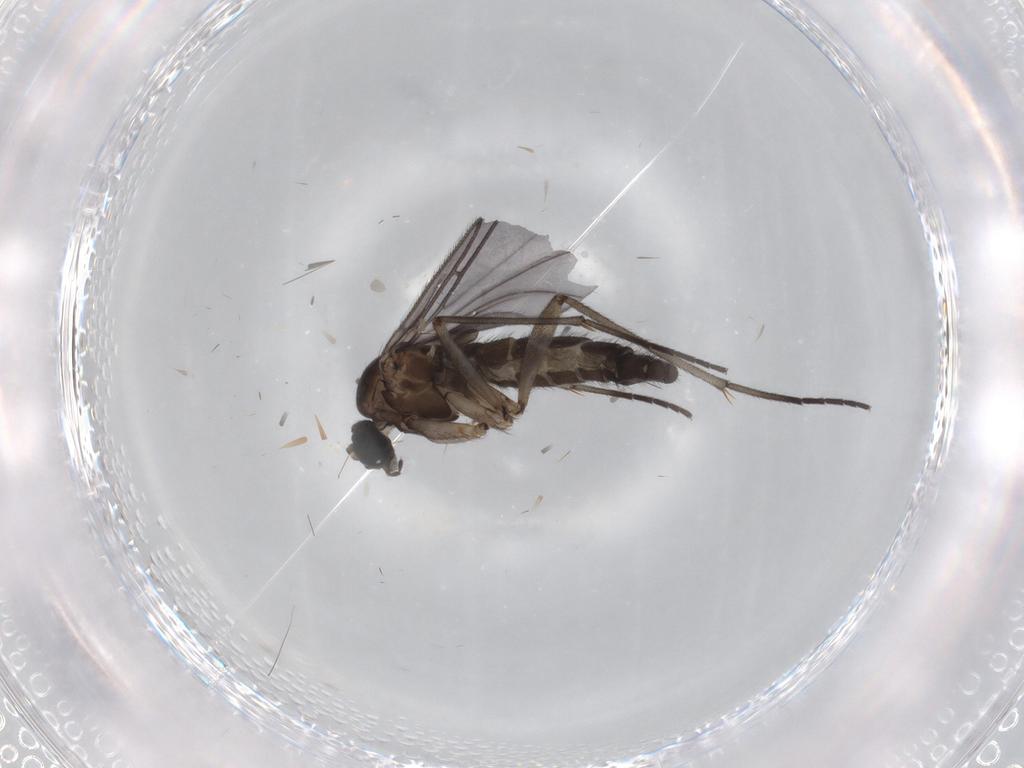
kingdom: Animalia
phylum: Arthropoda
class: Insecta
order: Diptera
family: Sciaridae
